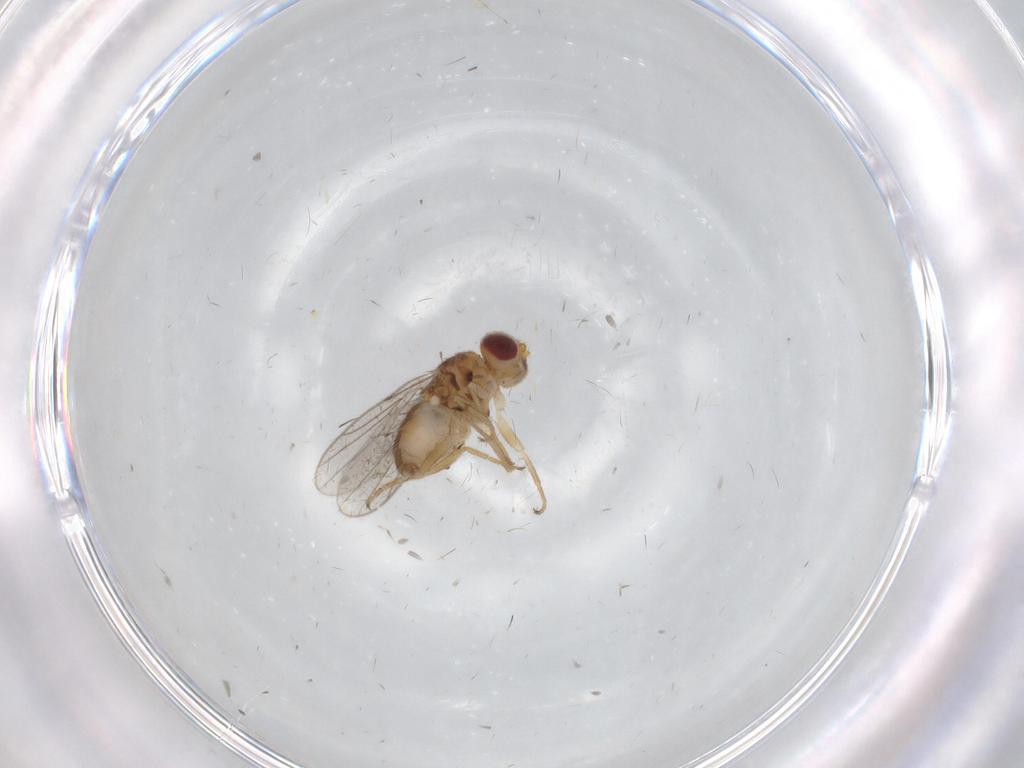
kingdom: Animalia
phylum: Arthropoda
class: Insecta
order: Diptera
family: Chloropidae
